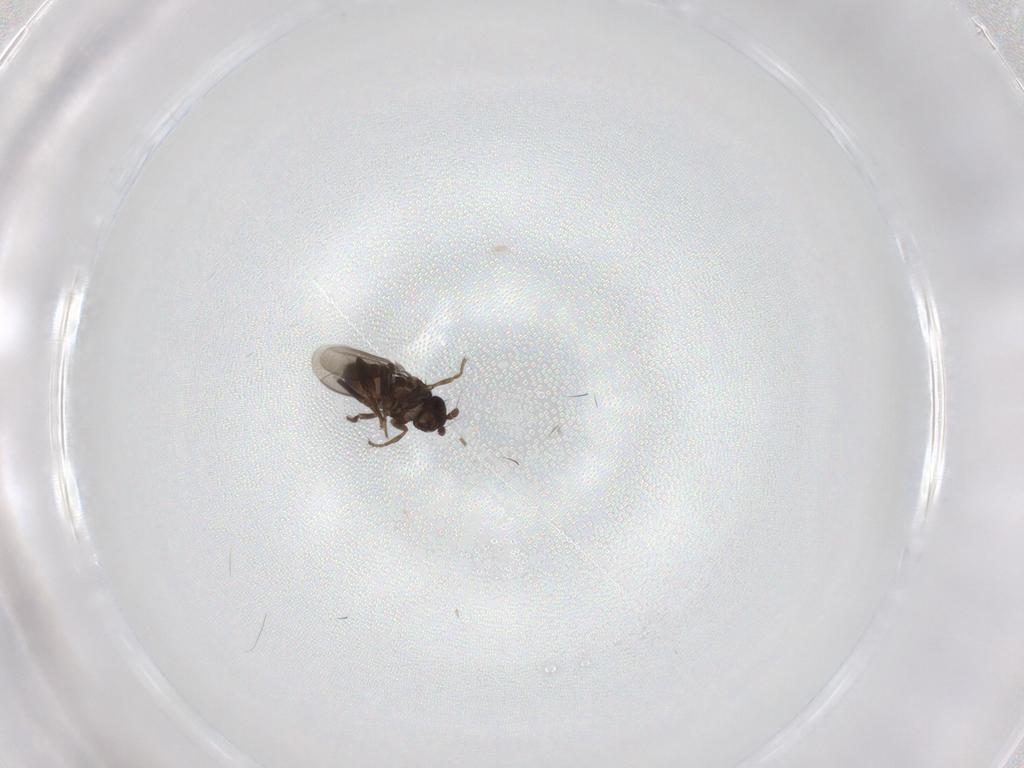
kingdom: Animalia
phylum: Arthropoda
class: Insecta
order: Diptera
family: Sphaeroceridae
